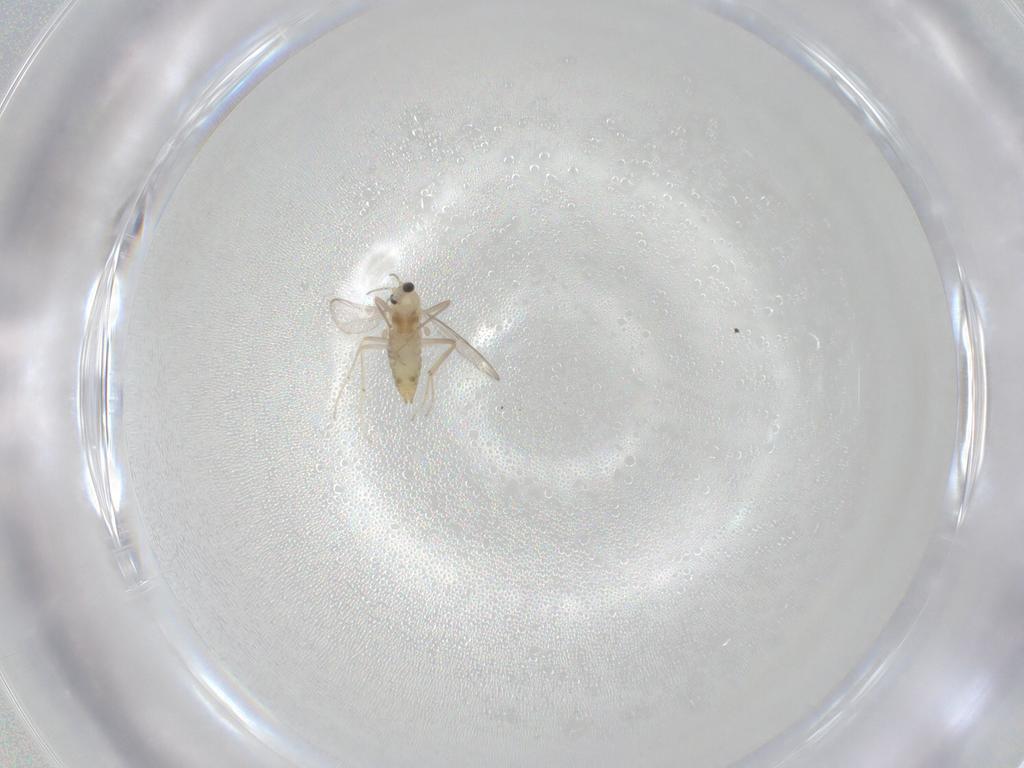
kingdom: Animalia
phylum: Arthropoda
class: Insecta
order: Diptera
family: Chironomidae
